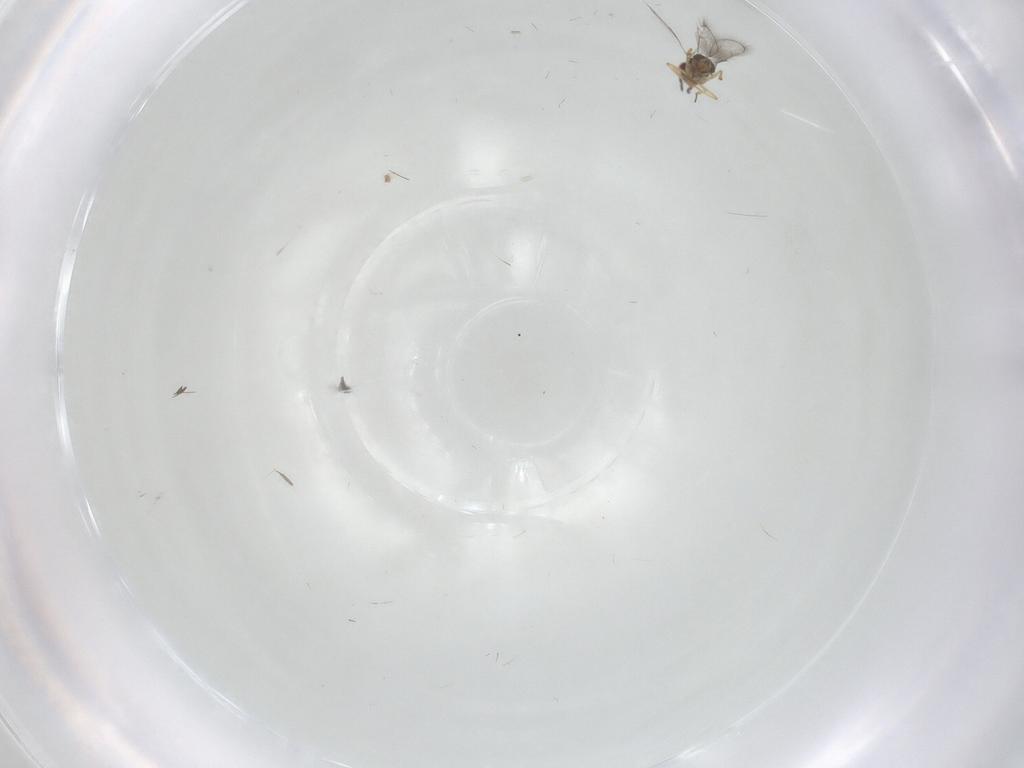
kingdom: Animalia
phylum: Arthropoda
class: Insecta
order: Hymenoptera
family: Eulophidae
